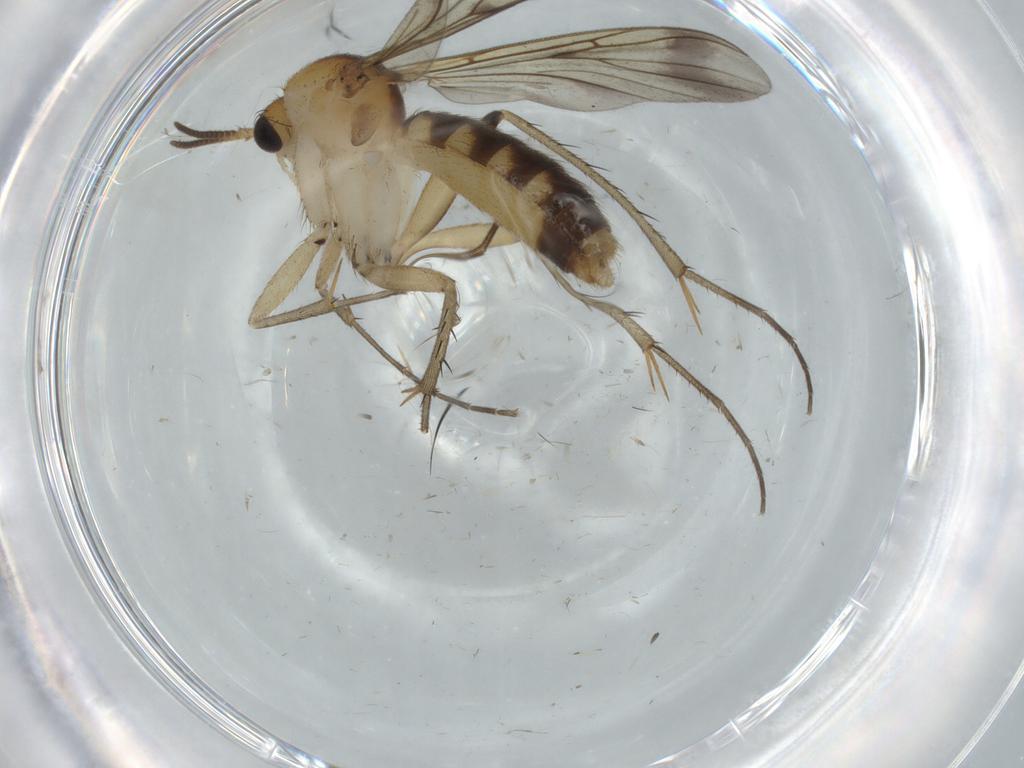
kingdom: Animalia
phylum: Arthropoda
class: Insecta
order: Diptera
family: Mycetophilidae
